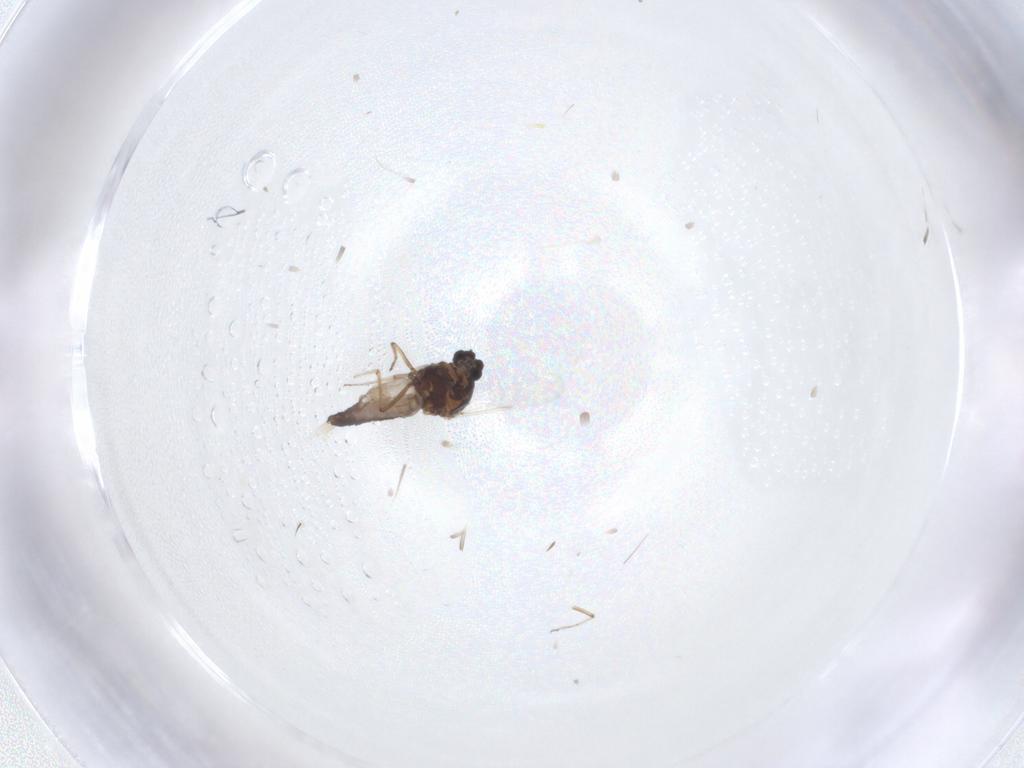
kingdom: Animalia
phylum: Arthropoda
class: Insecta
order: Diptera
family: Ceratopogonidae
